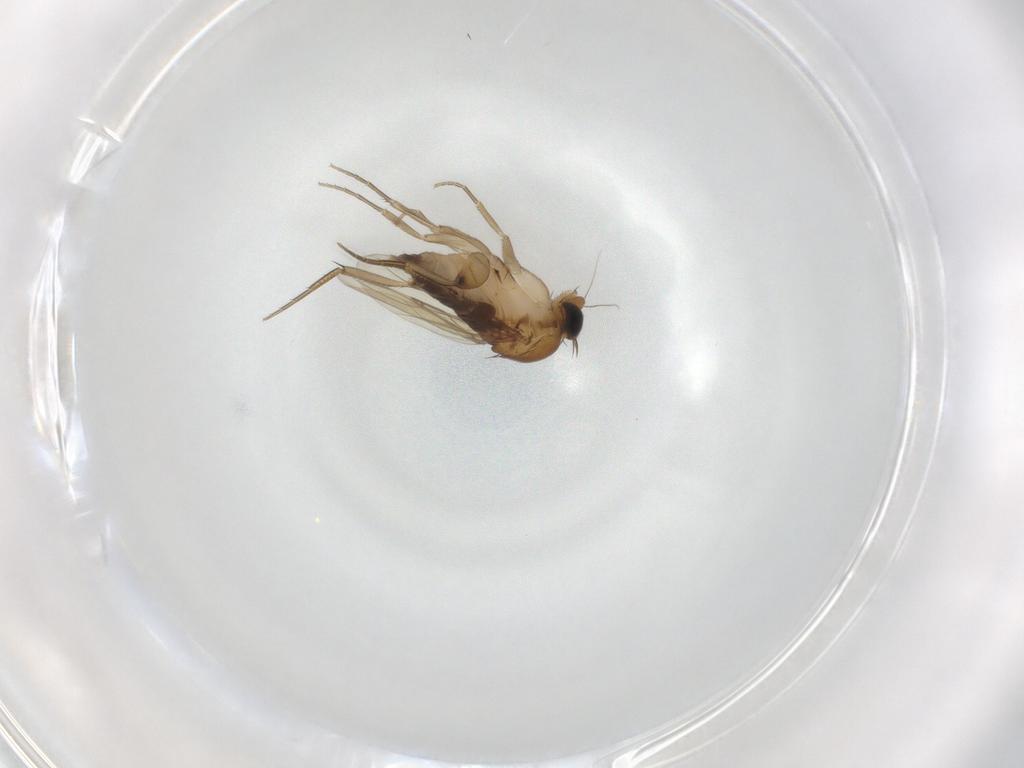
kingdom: Animalia
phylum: Arthropoda
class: Insecta
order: Diptera
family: Phoridae
